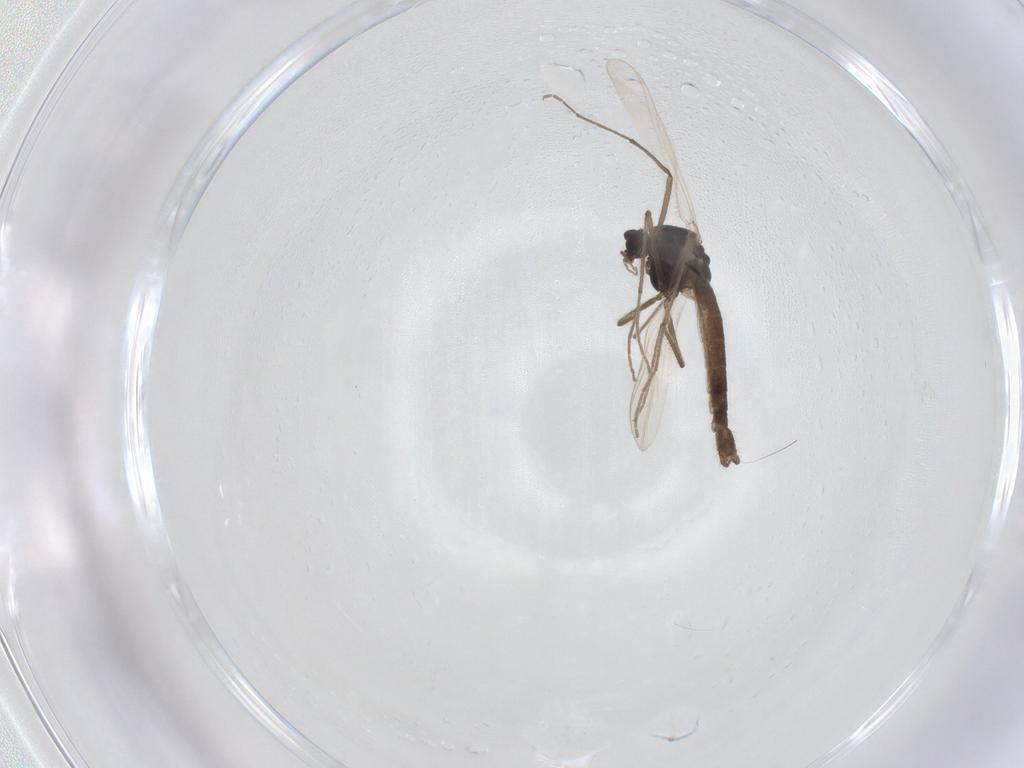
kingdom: Animalia
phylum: Arthropoda
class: Insecta
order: Diptera
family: Chironomidae
